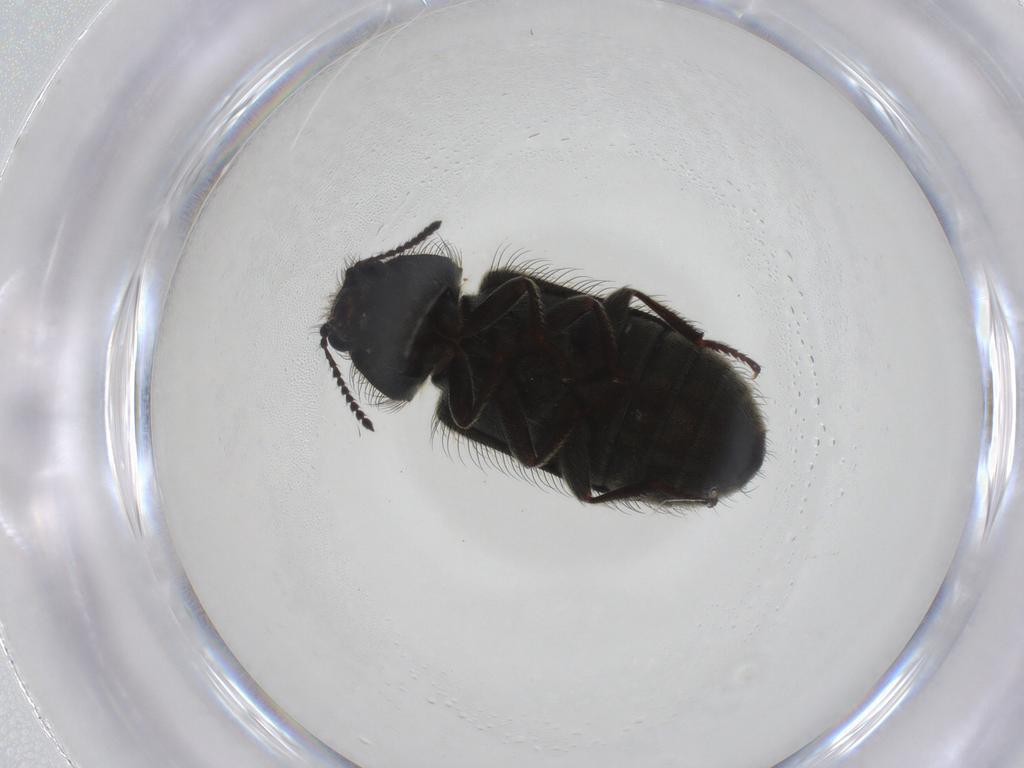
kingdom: Animalia
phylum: Arthropoda
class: Insecta
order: Coleoptera
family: Melyridae
